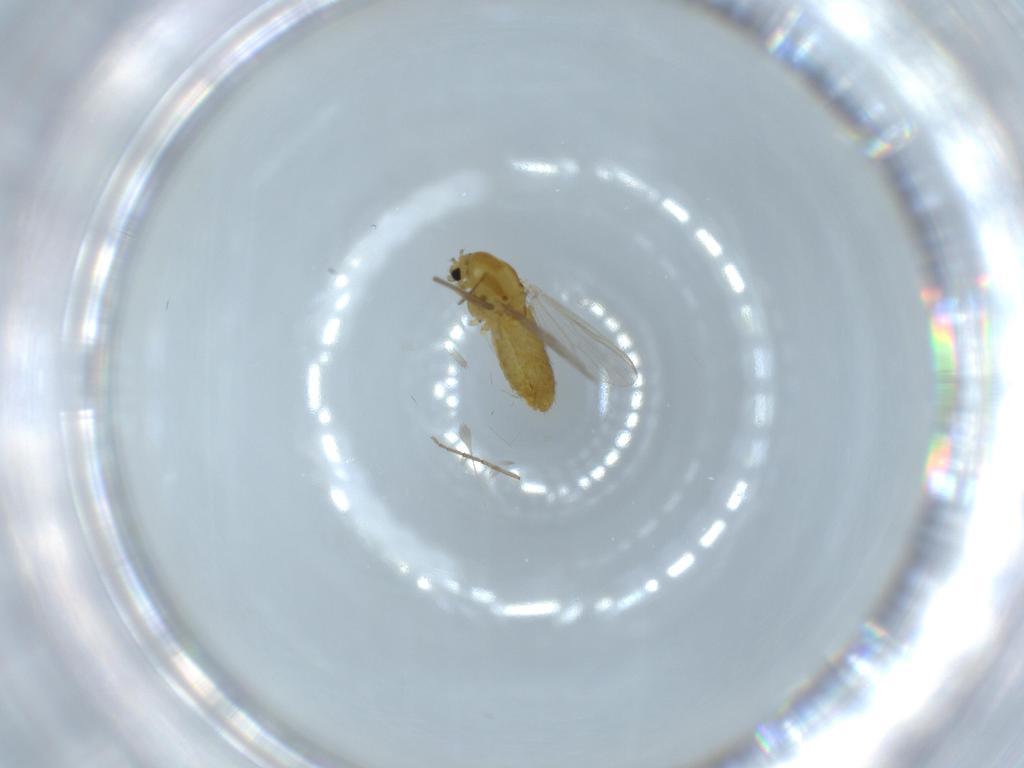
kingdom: Animalia
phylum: Arthropoda
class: Insecta
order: Diptera
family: Chironomidae
